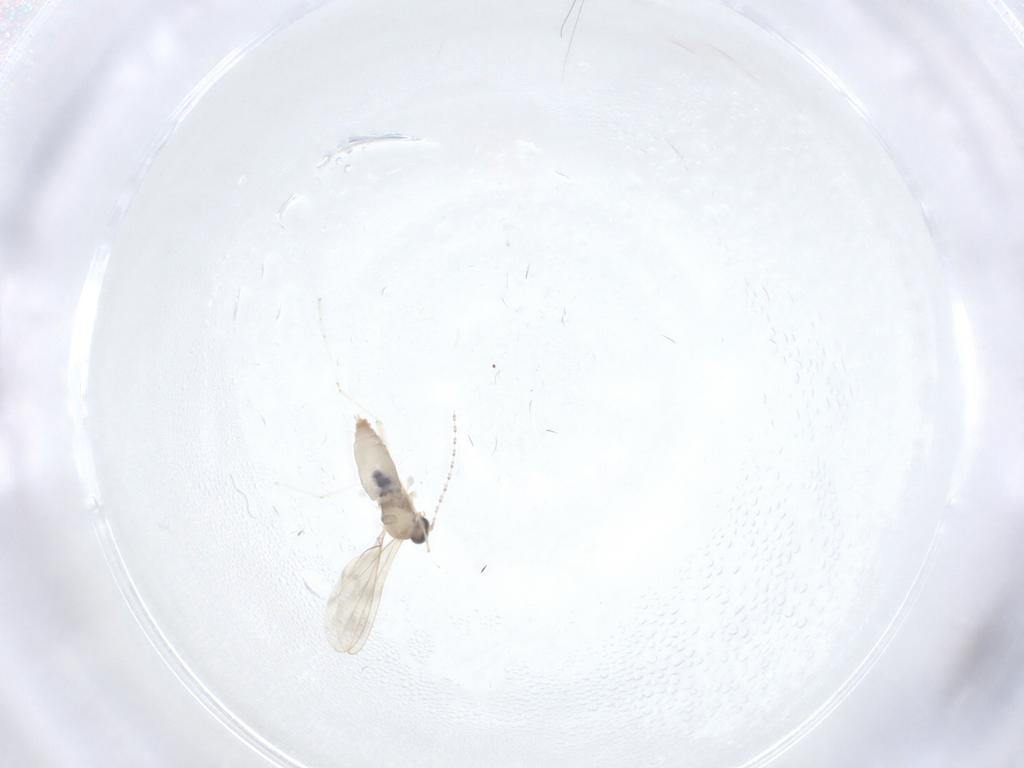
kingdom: Animalia
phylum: Arthropoda
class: Insecta
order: Diptera
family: Cecidomyiidae
